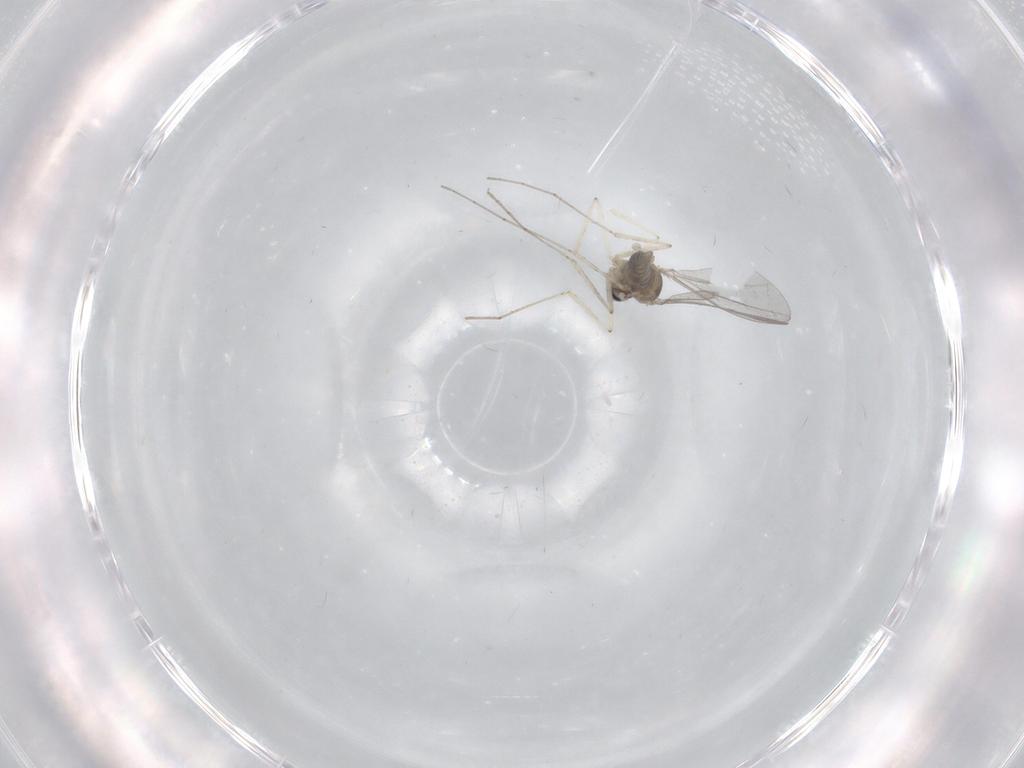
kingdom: Animalia
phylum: Arthropoda
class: Insecta
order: Diptera
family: Cecidomyiidae
